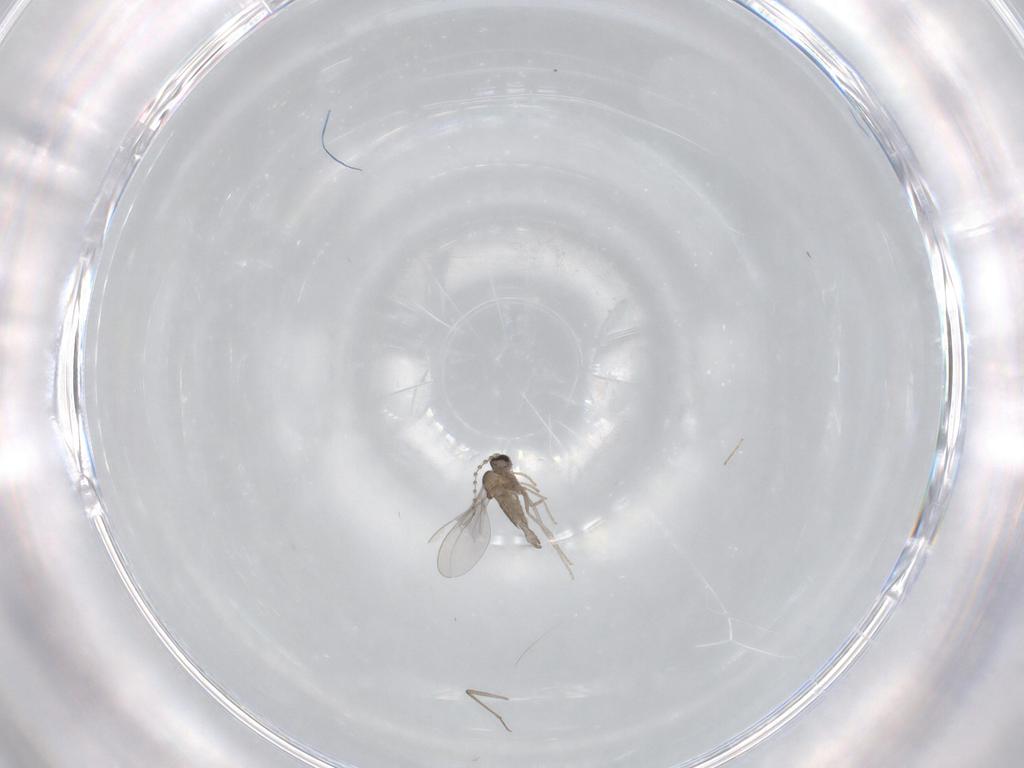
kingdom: Animalia
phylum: Arthropoda
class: Insecta
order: Diptera
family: Cecidomyiidae
